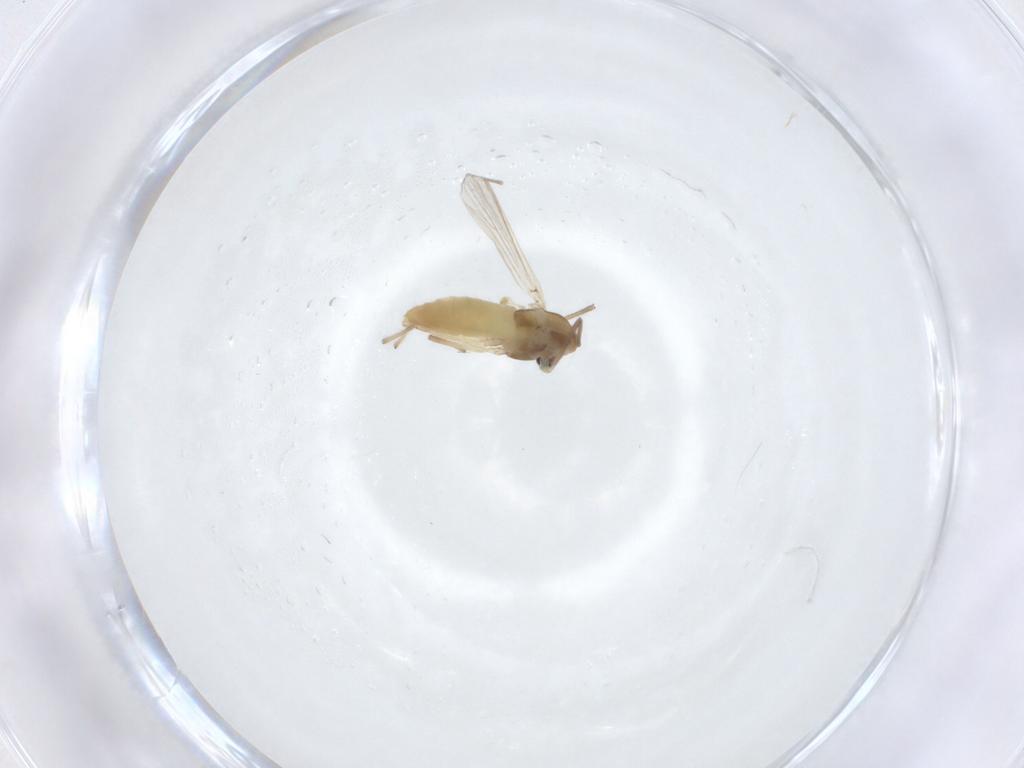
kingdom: Animalia
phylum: Arthropoda
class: Insecta
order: Diptera
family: Chironomidae
